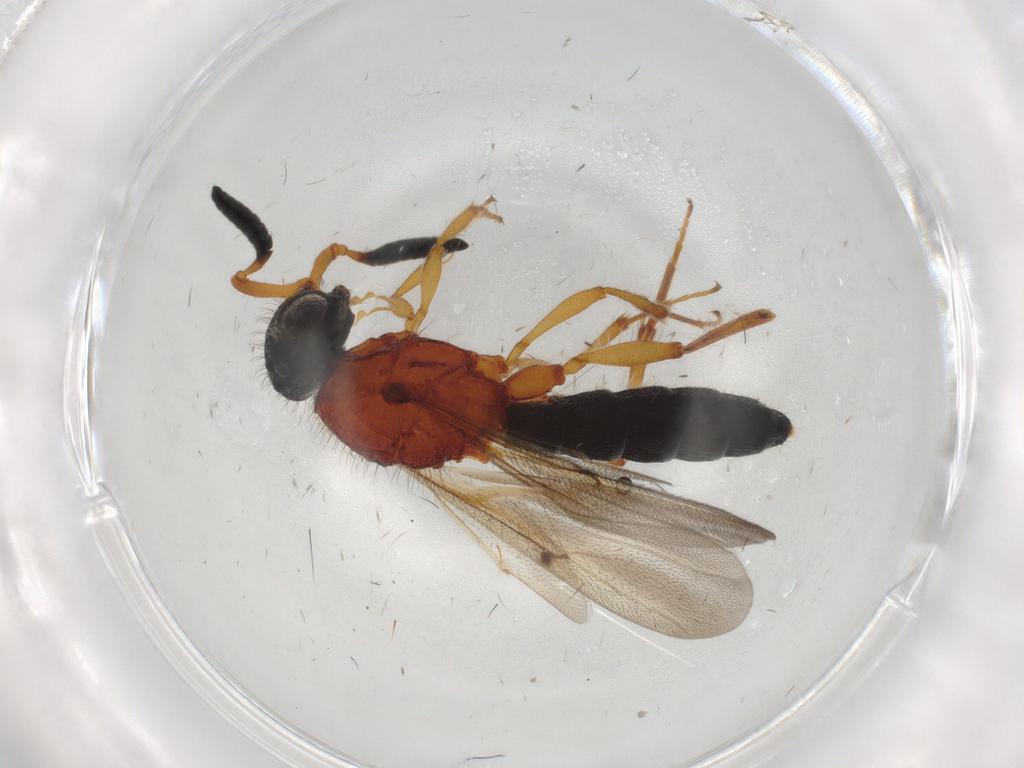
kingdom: Animalia
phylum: Arthropoda
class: Insecta
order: Hymenoptera
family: Scelionidae
